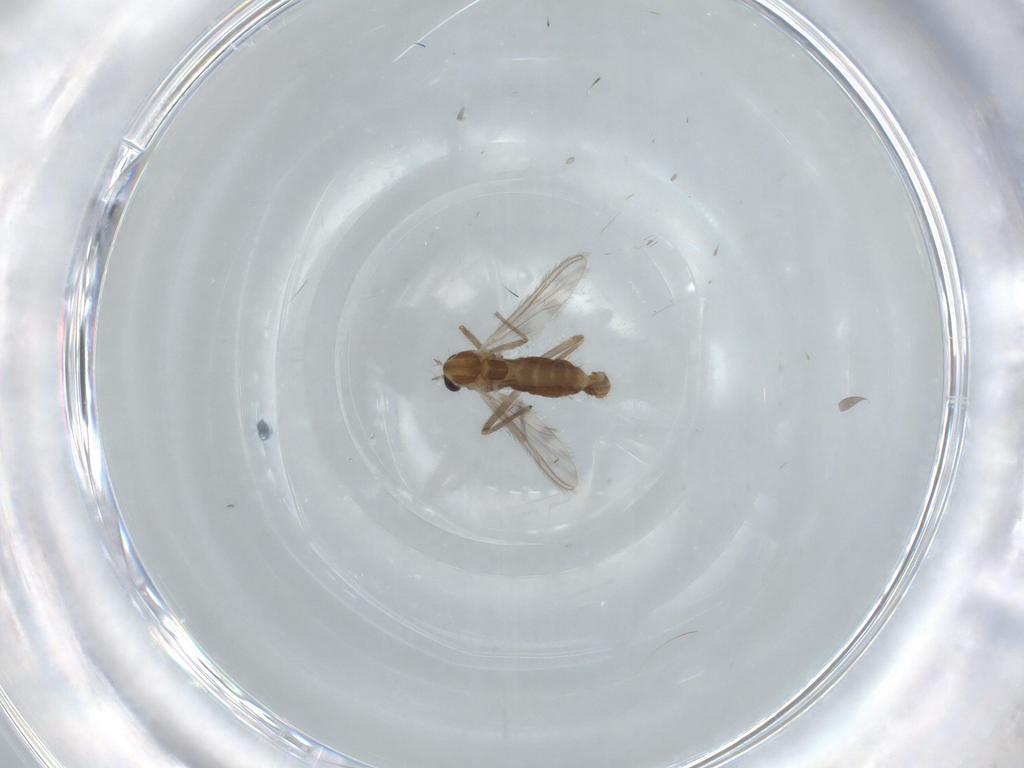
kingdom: Animalia
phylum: Arthropoda
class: Insecta
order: Diptera
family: Chironomidae
